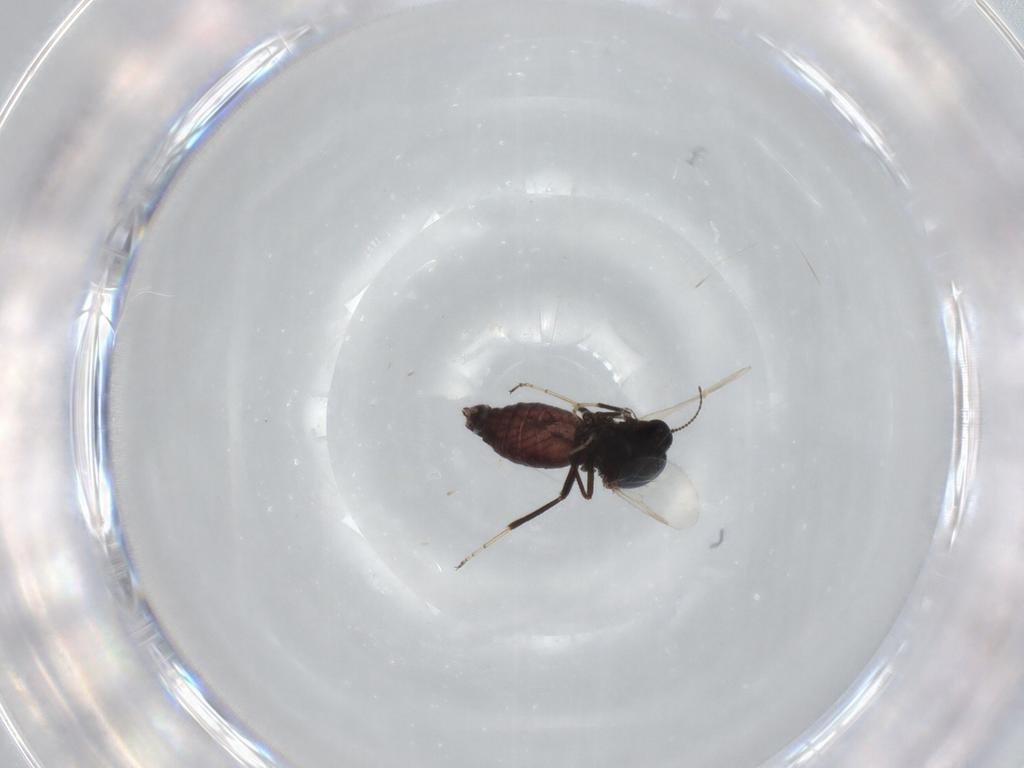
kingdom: Animalia
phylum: Arthropoda
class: Insecta
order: Diptera
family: Ceratopogonidae
